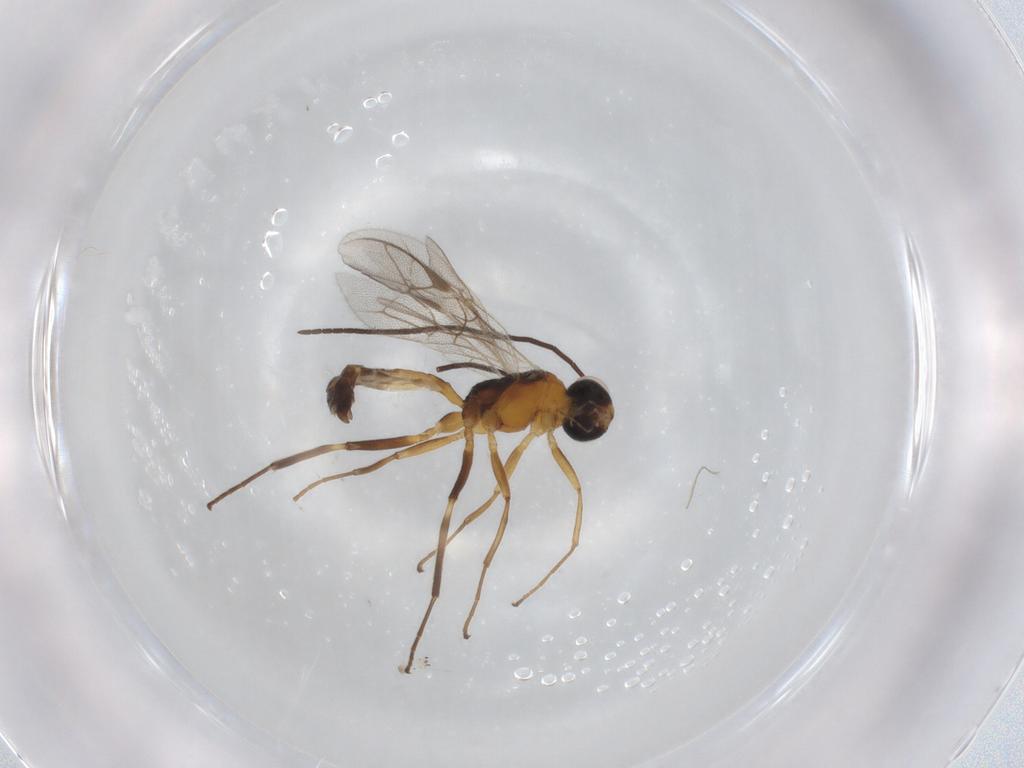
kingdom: Animalia
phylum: Arthropoda
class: Insecta
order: Hymenoptera
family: Ichneumonidae
